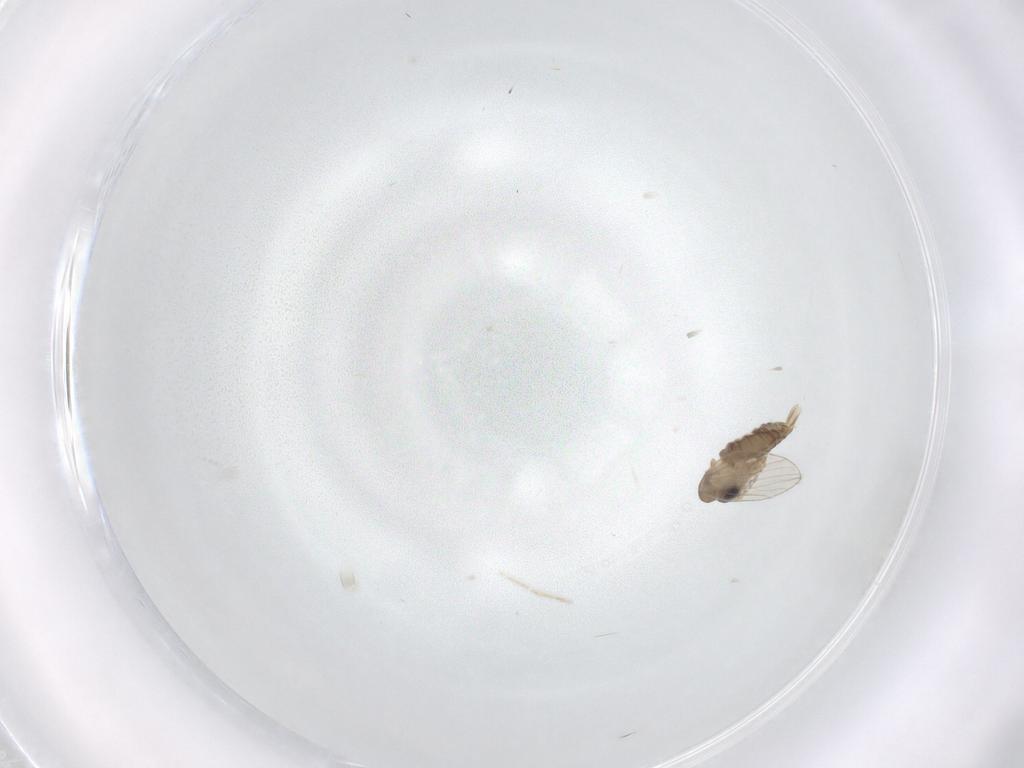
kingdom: Animalia
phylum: Arthropoda
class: Insecta
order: Diptera
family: Psychodidae
